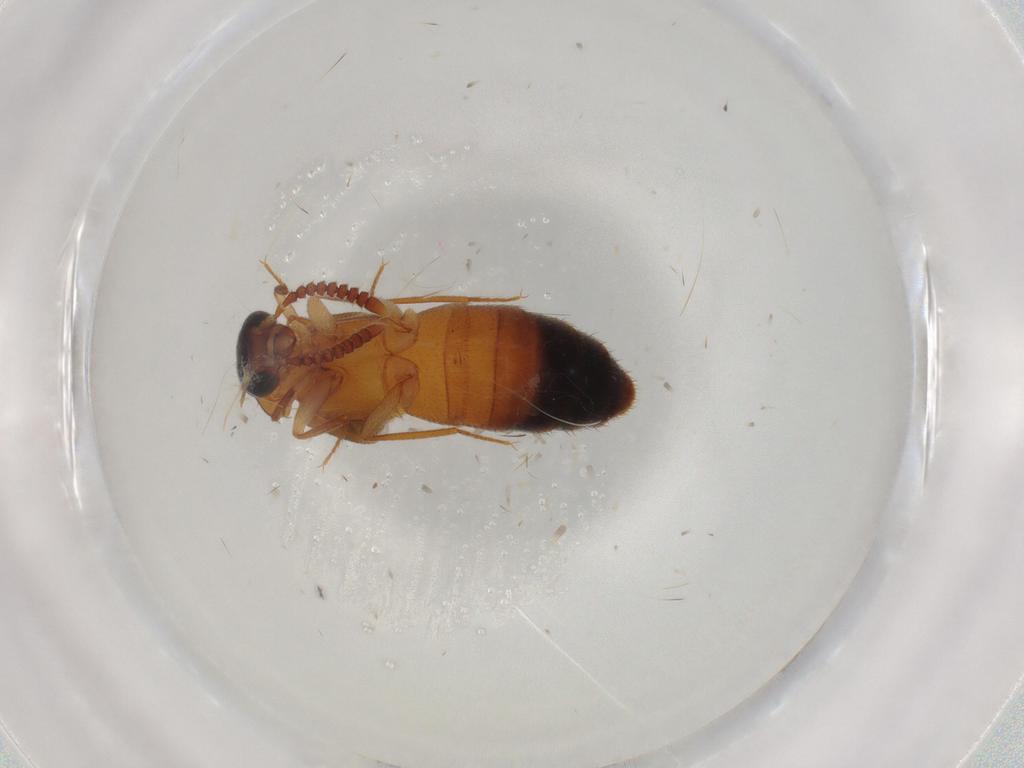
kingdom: Animalia
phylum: Arthropoda
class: Insecta
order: Coleoptera
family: Staphylinidae
